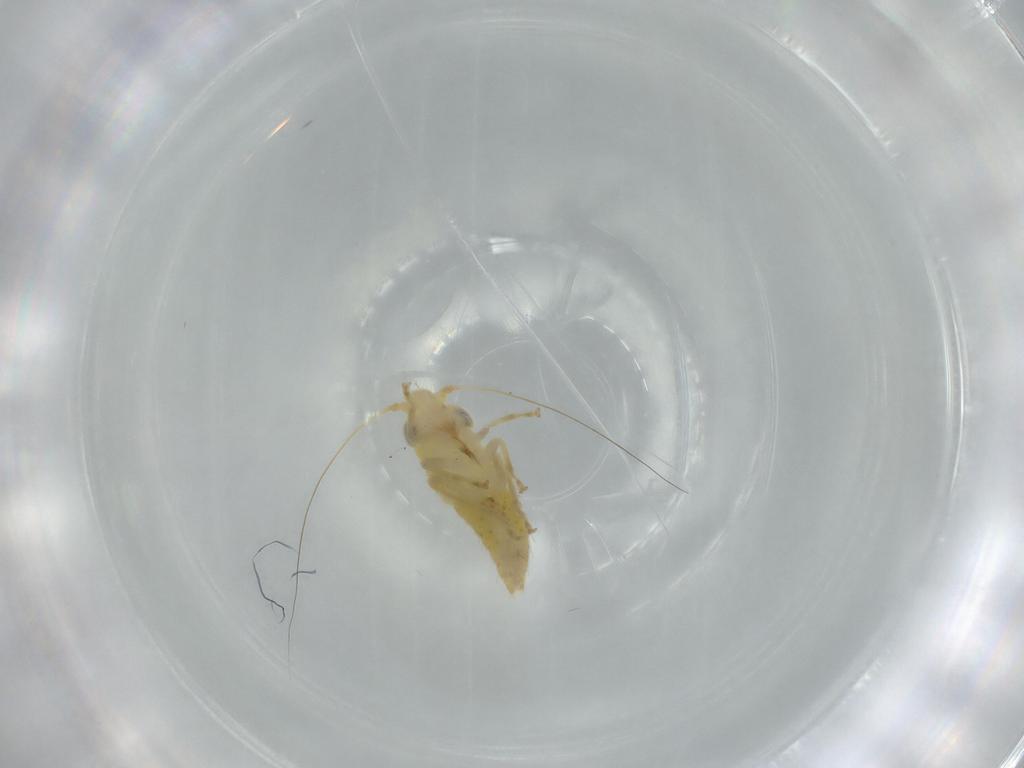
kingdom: Animalia
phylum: Arthropoda
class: Insecta
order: Hemiptera
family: Cicadellidae
